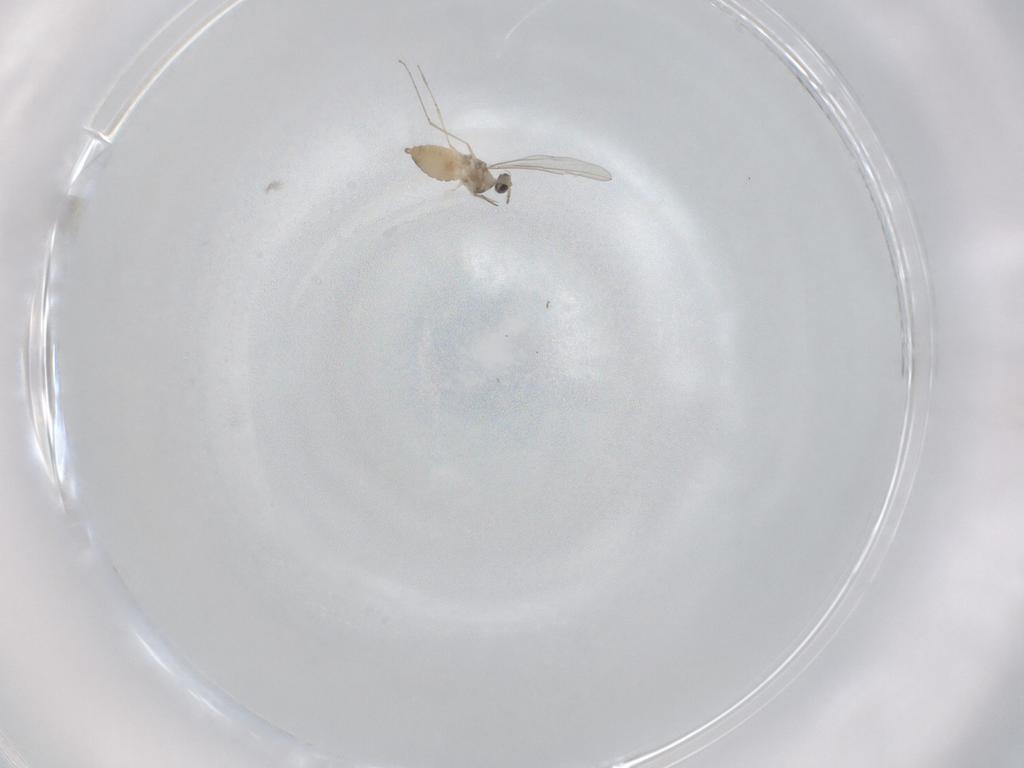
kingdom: Animalia
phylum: Arthropoda
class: Insecta
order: Diptera
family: Cecidomyiidae
